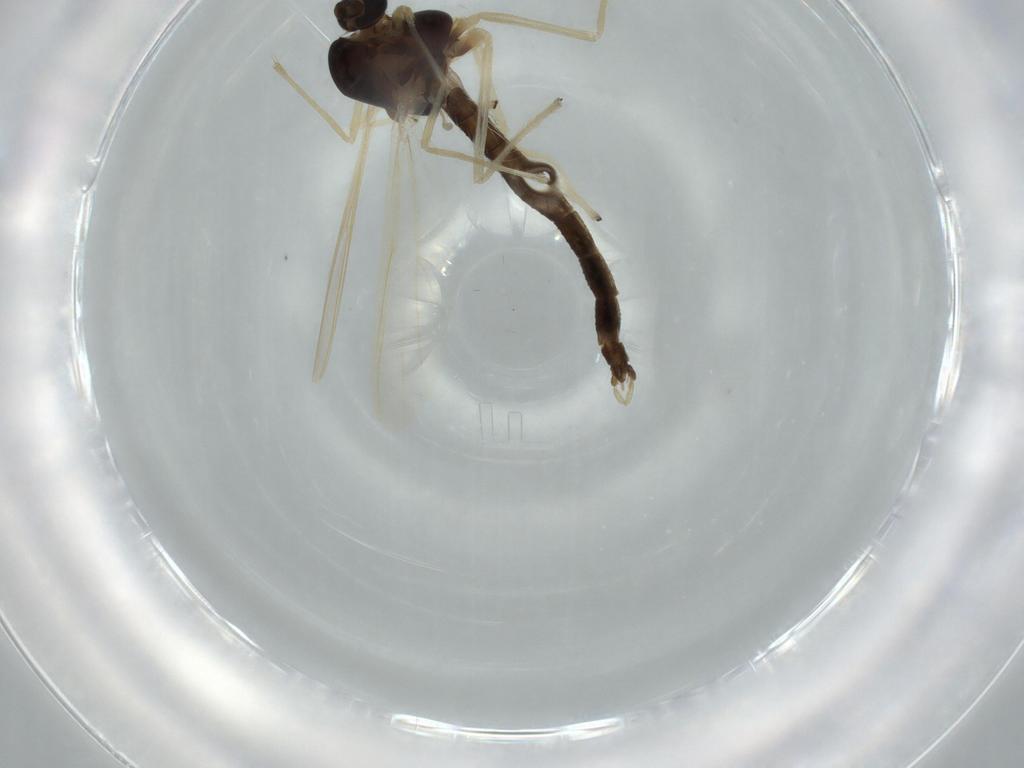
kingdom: Animalia
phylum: Arthropoda
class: Insecta
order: Diptera
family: Chironomidae
